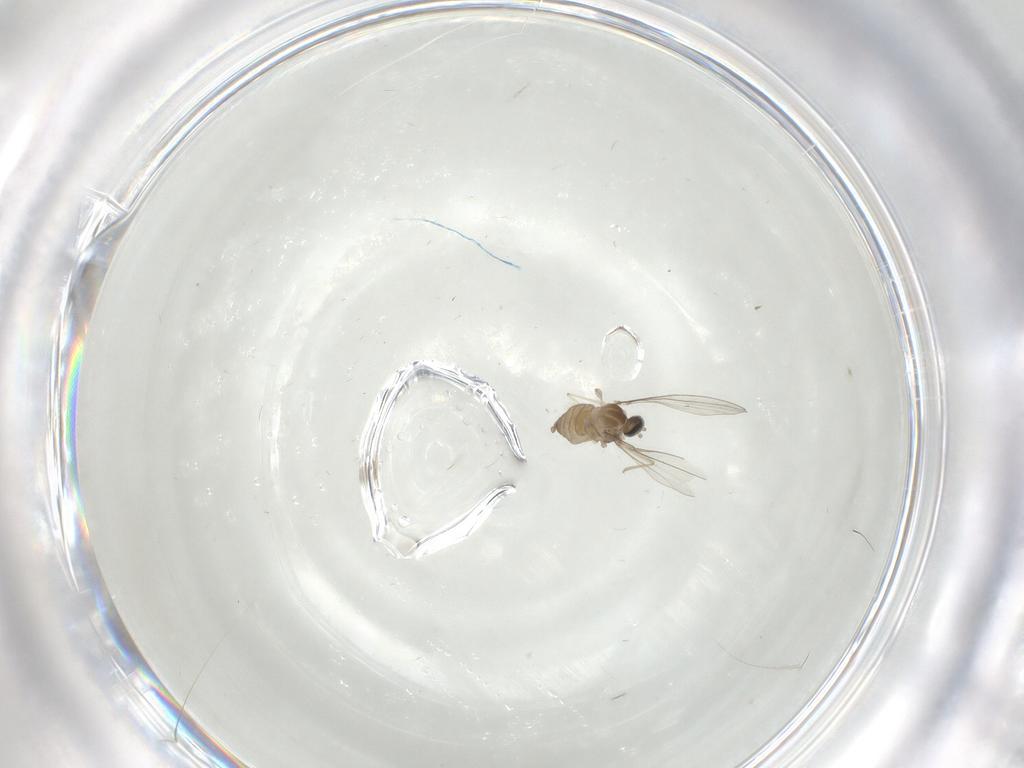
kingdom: Animalia
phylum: Arthropoda
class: Insecta
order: Diptera
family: Cecidomyiidae
